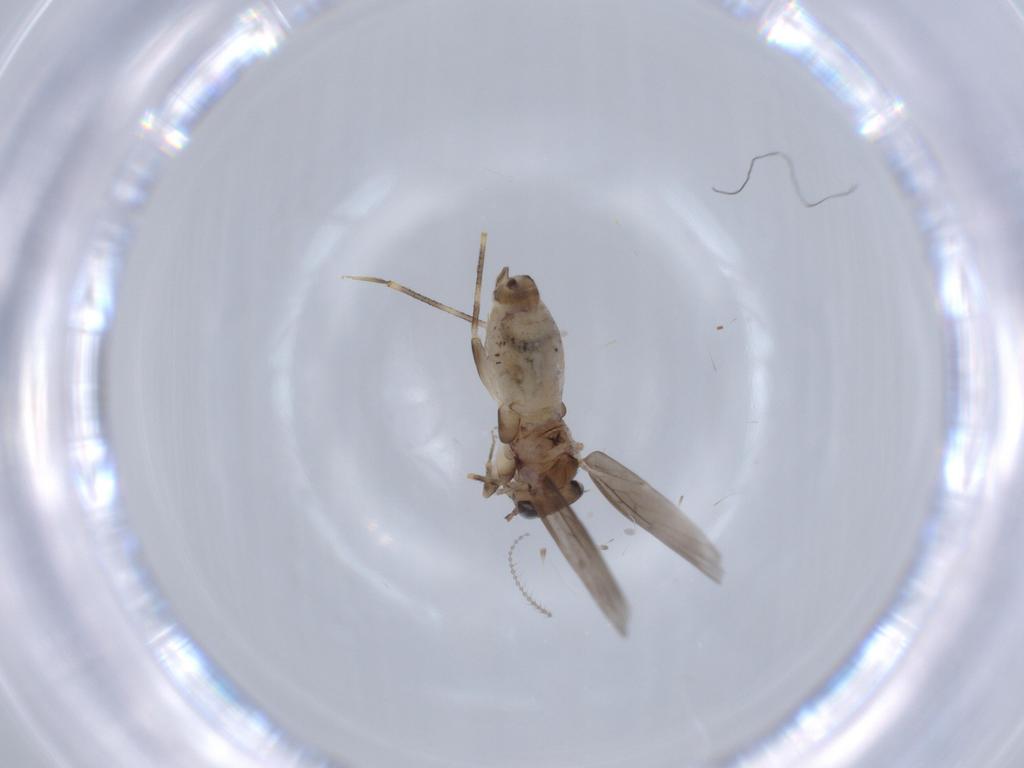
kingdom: Animalia
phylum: Arthropoda
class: Insecta
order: Psocodea
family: Lepidopsocidae
